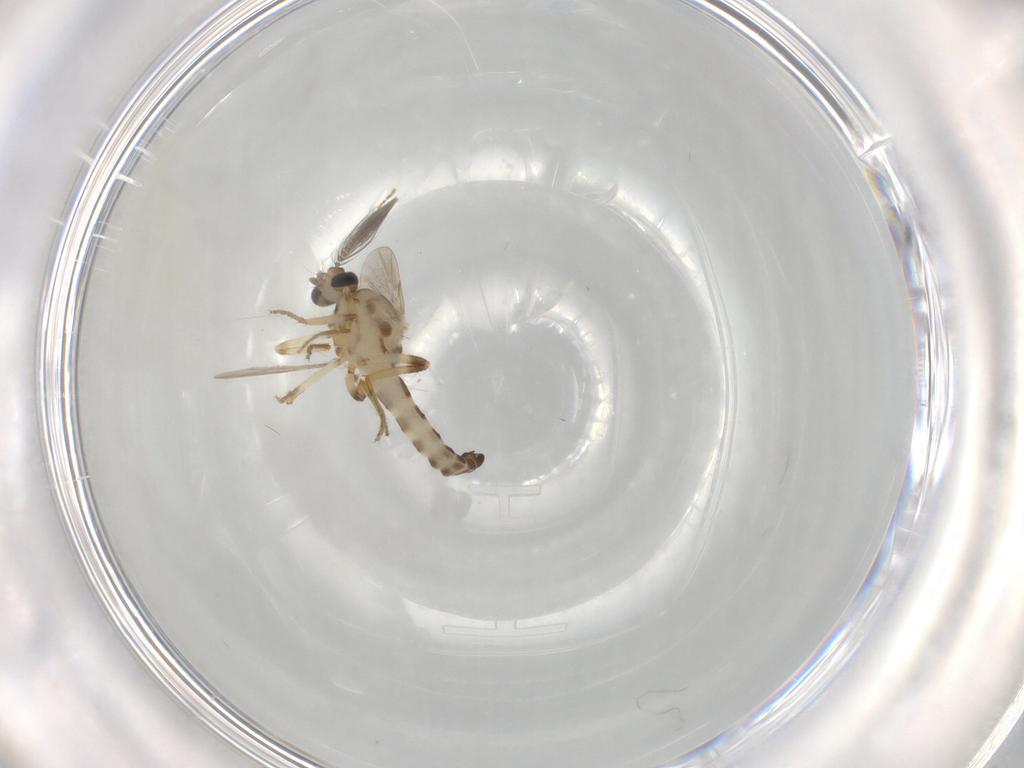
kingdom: Animalia
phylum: Arthropoda
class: Insecta
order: Diptera
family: Ceratopogonidae
